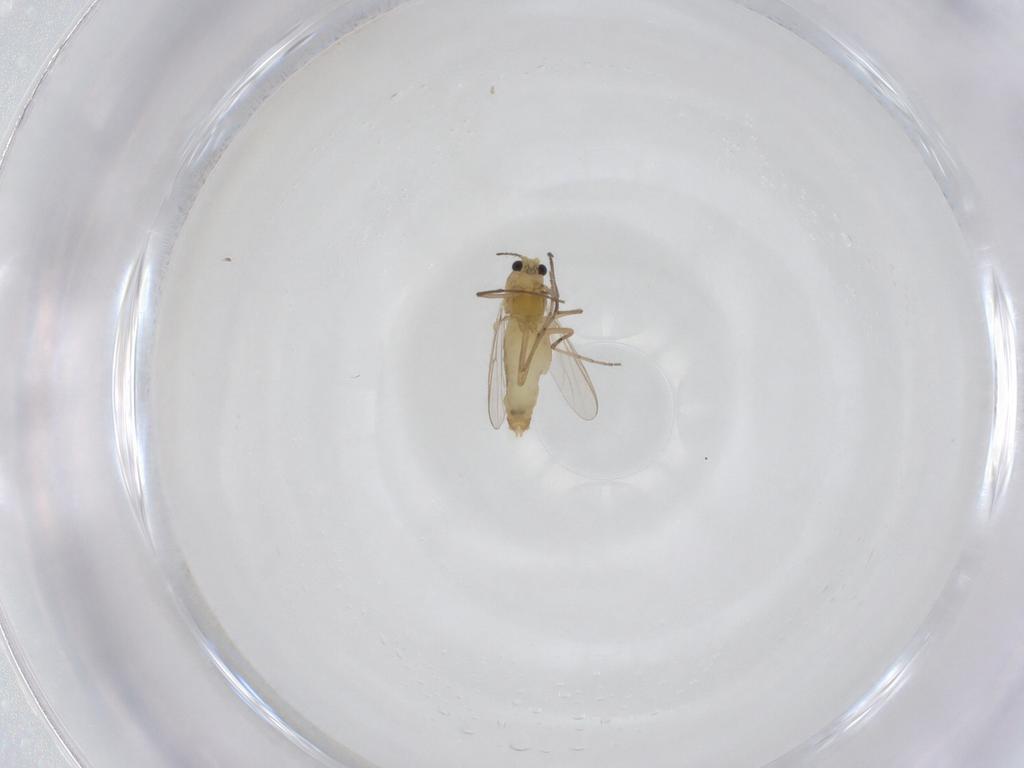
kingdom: Animalia
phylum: Arthropoda
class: Insecta
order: Diptera
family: Chironomidae
